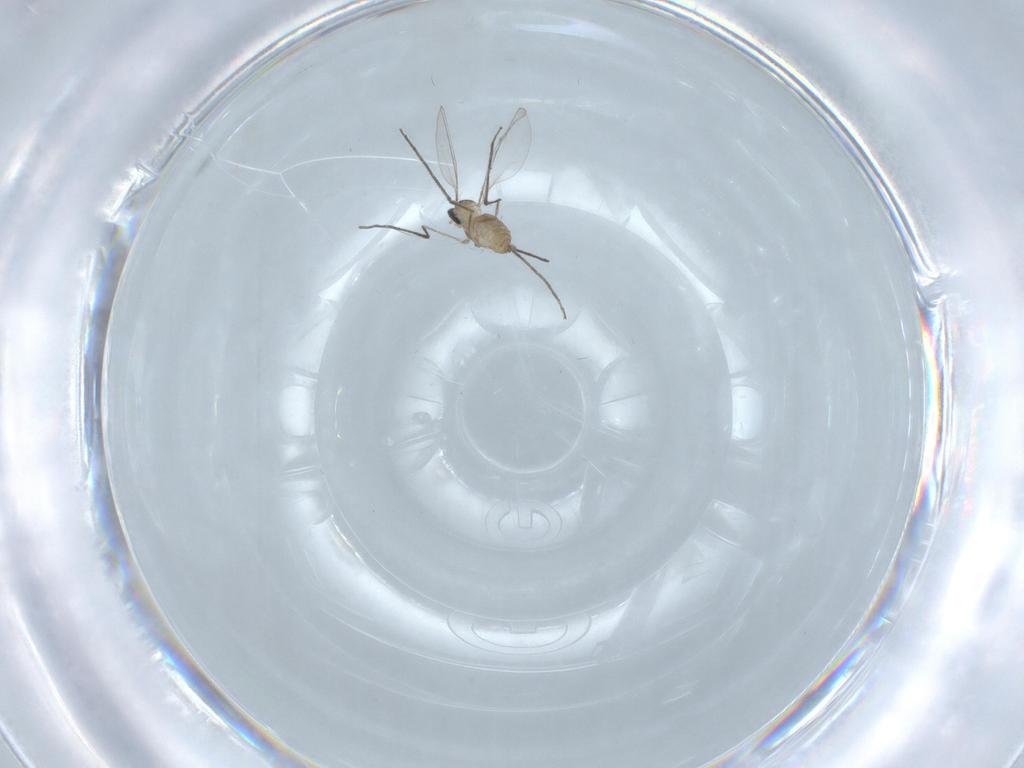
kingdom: Animalia
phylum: Arthropoda
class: Insecta
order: Diptera
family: Cecidomyiidae
